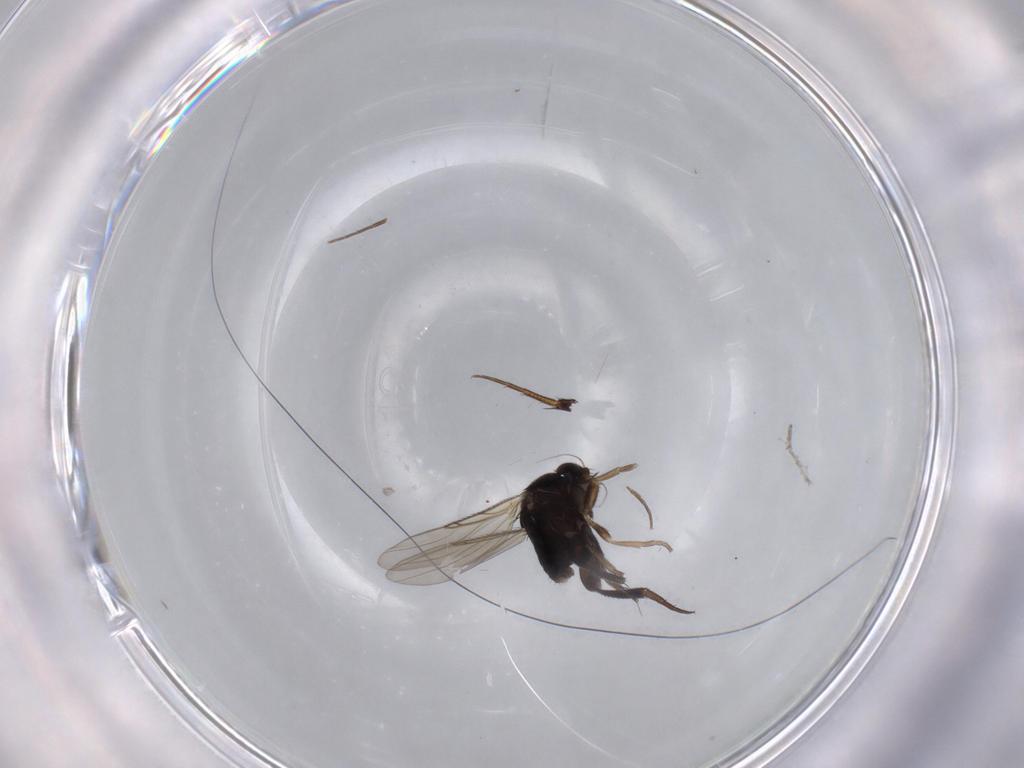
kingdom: Animalia
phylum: Arthropoda
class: Insecta
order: Diptera
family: Phoridae
